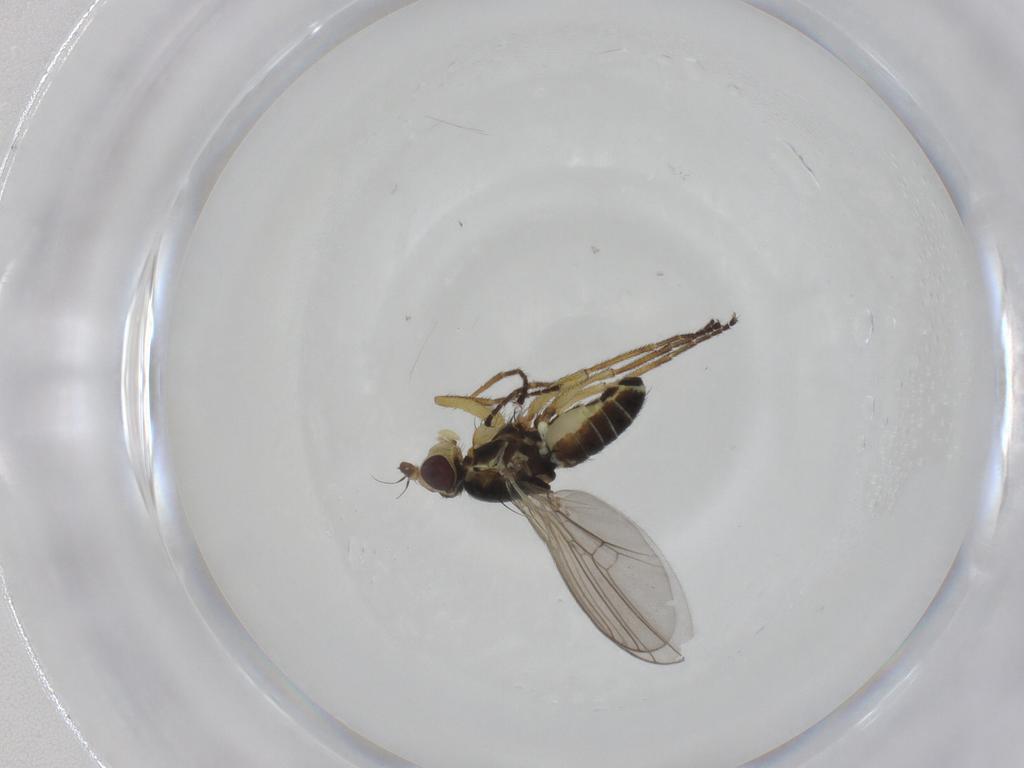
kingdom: Animalia
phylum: Arthropoda
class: Insecta
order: Diptera
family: Agromyzidae
